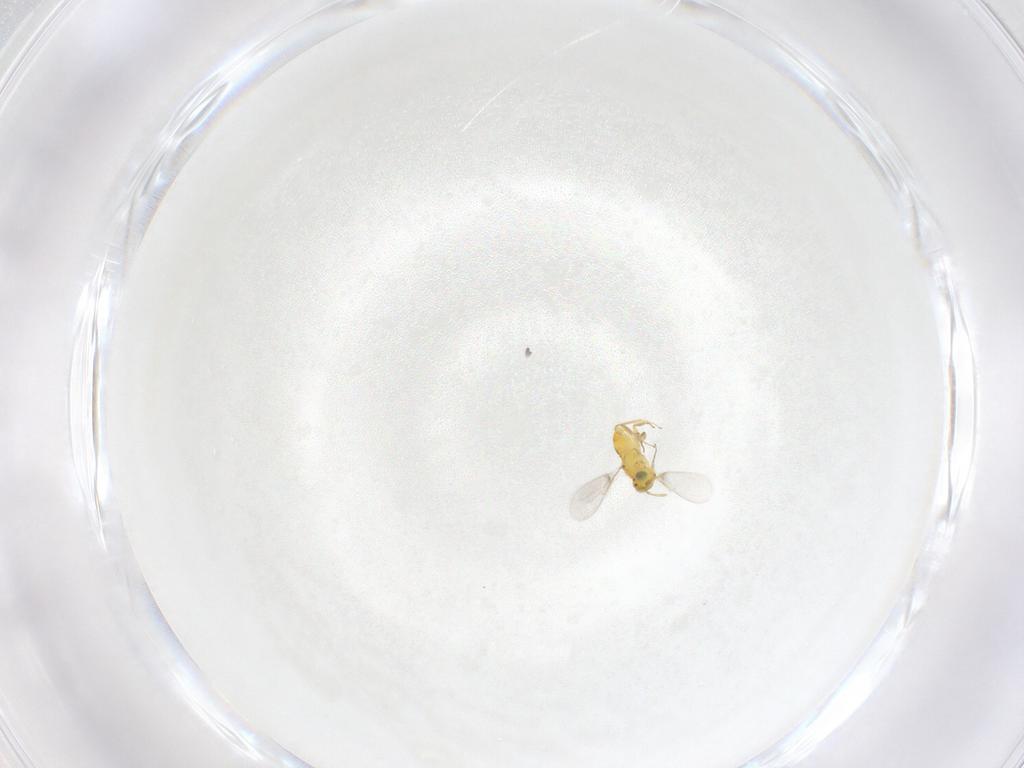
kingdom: Animalia
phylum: Arthropoda
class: Insecta
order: Hymenoptera
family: Aphelinidae
